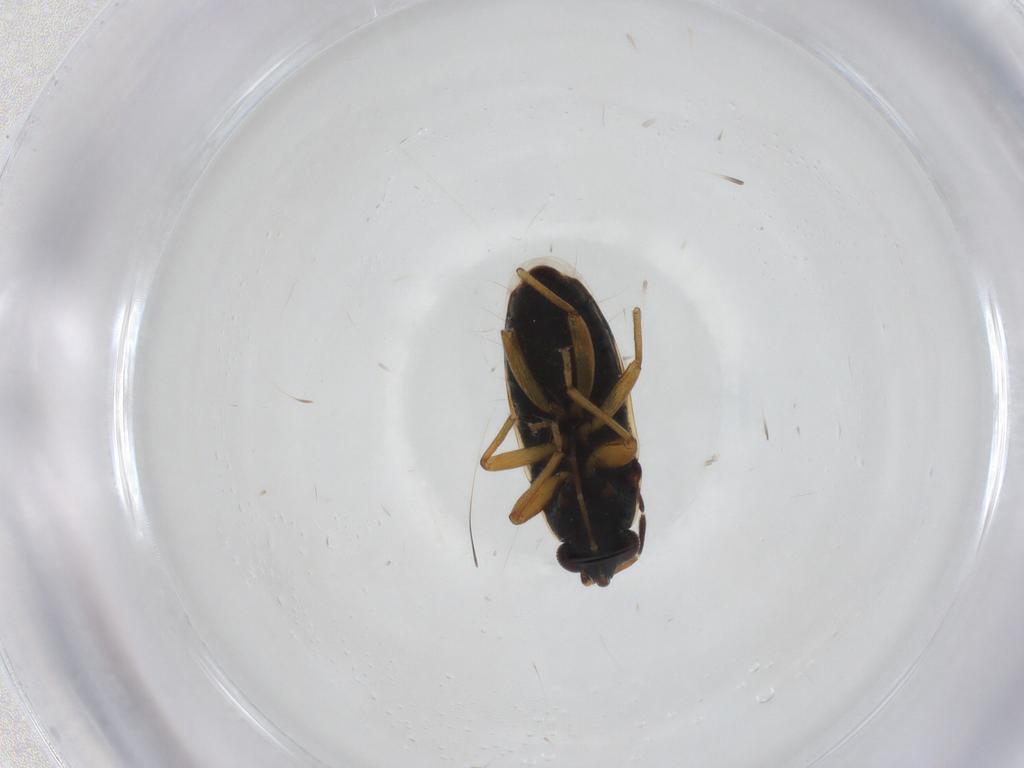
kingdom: Animalia
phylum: Arthropoda
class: Insecta
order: Hemiptera
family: Rhyparochromidae
